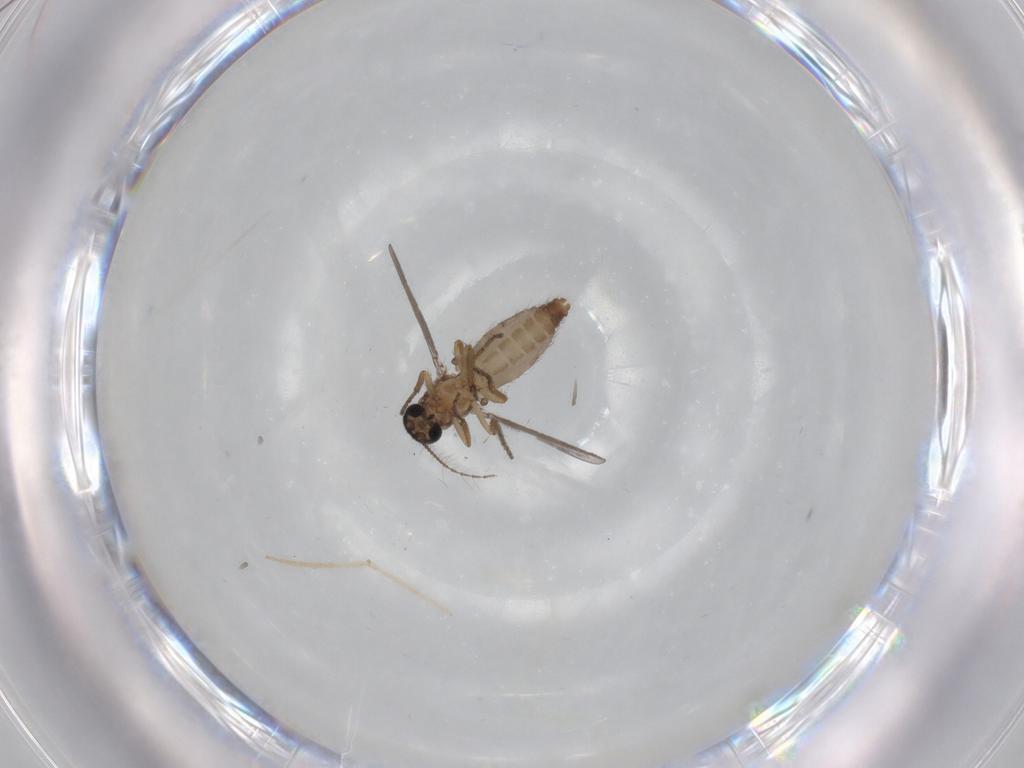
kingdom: Animalia
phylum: Arthropoda
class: Insecta
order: Diptera
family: Ceratopogonidae
